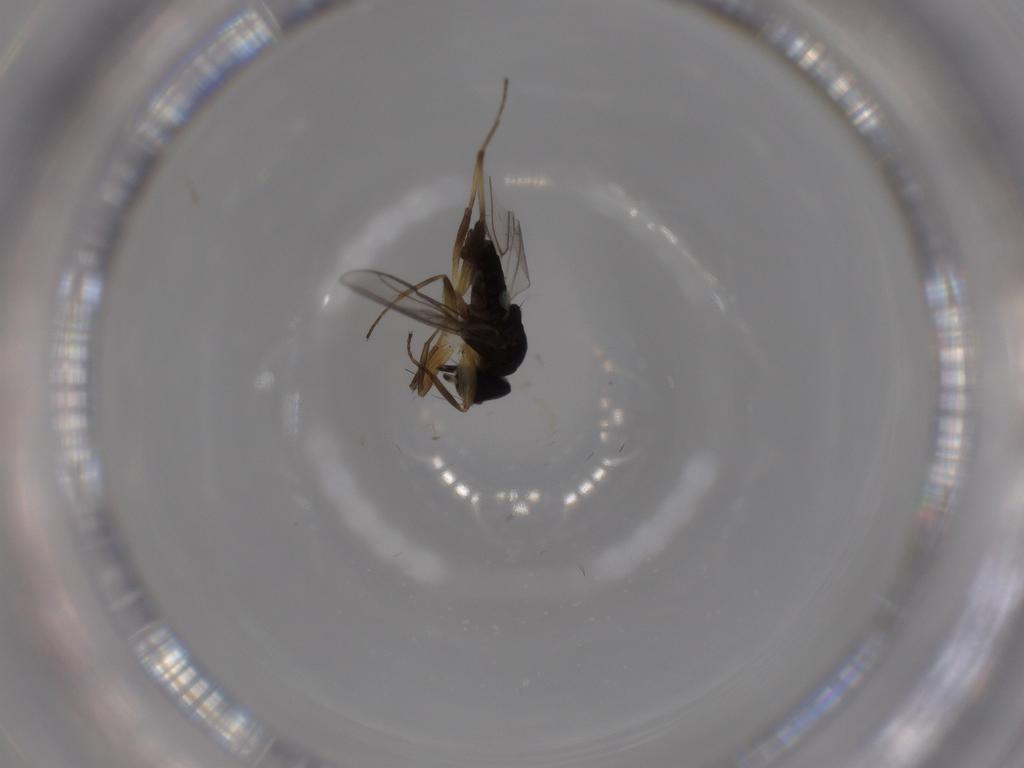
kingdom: Animalia
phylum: Arthropoda
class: Insecta
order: Diptera
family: Hybotidae
